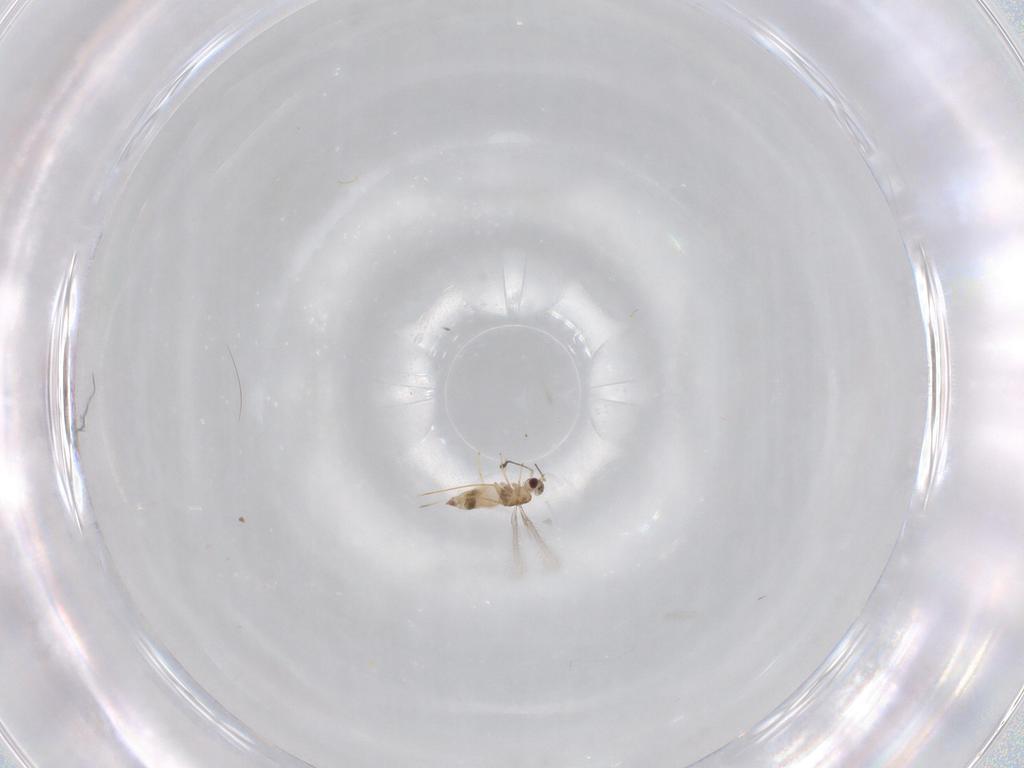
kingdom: Animalia
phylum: Arthropoda
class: Insecta
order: Hymenoptera
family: Mymaridae
